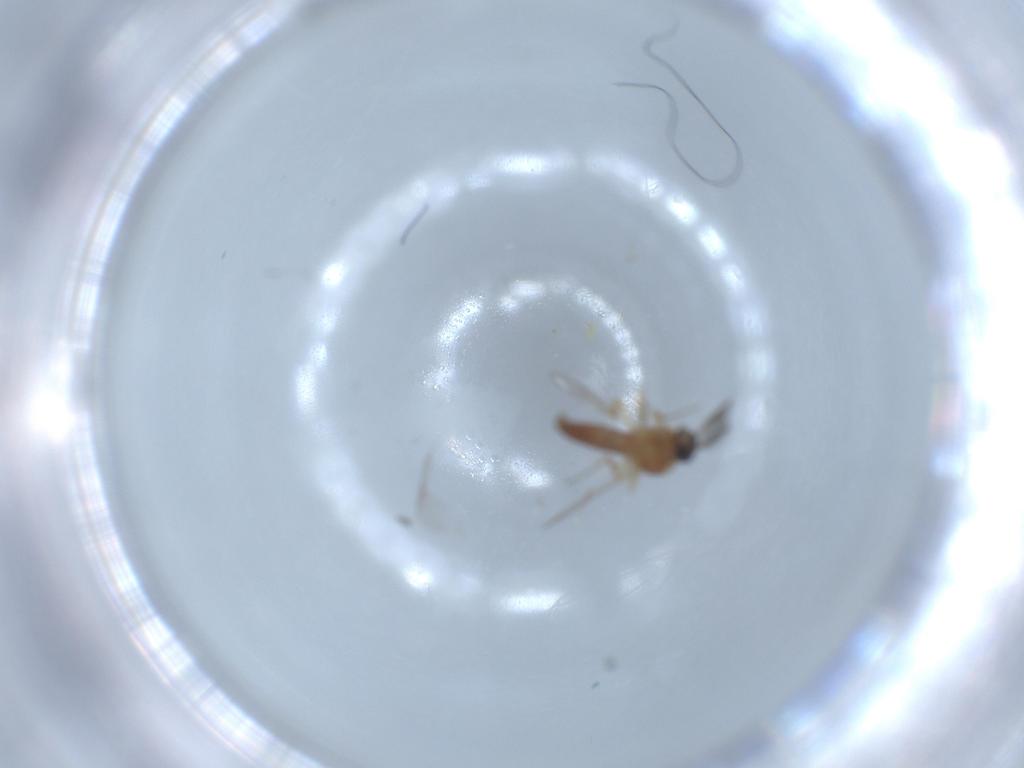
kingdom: Animalia
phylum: Arthropoda
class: Insecta
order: Diptera
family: Ceratopogonidae
